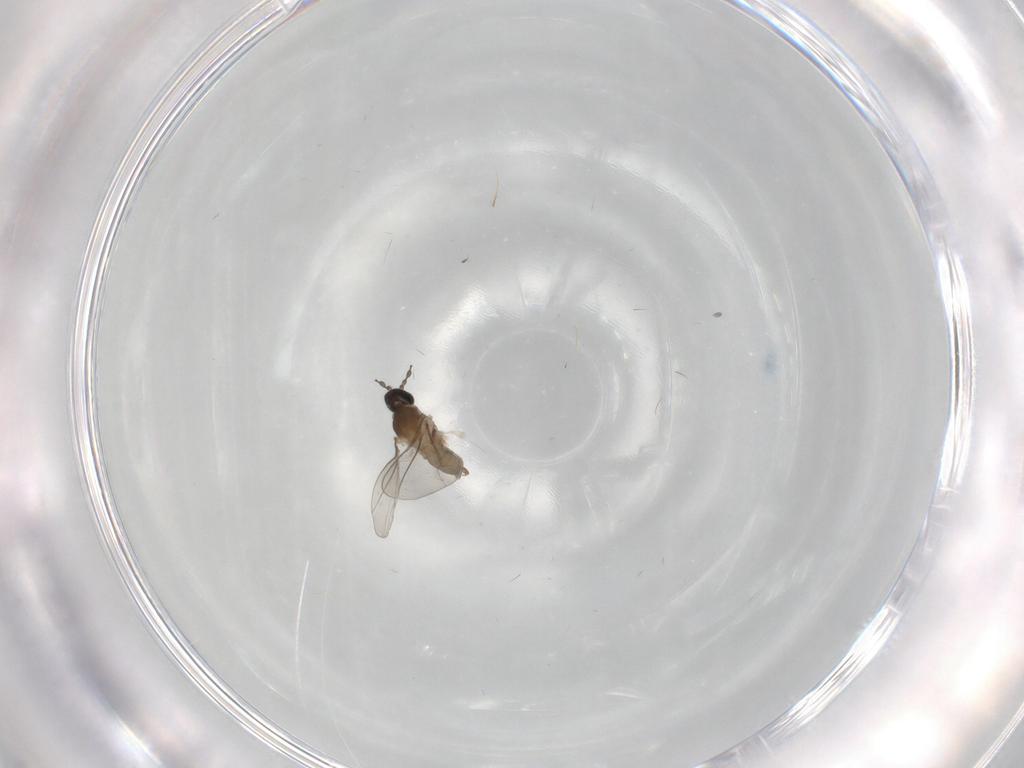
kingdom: Animalia
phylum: Arthropoda
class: Insecta
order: Diptera
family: Cecidomyiidae
